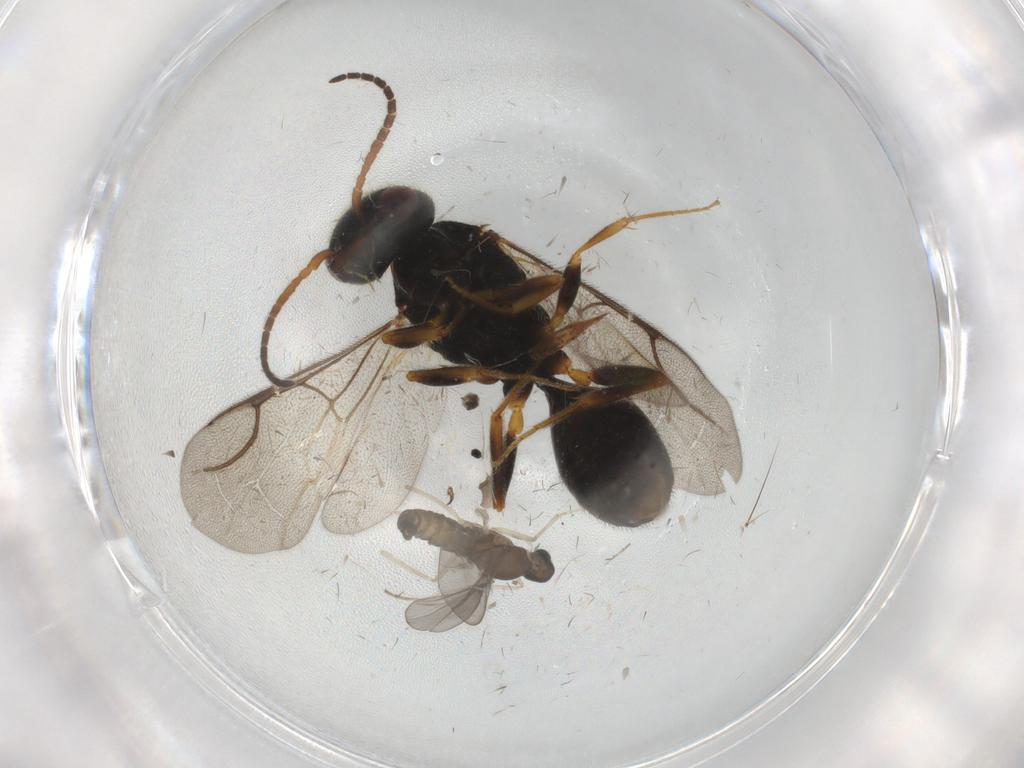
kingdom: Animalia
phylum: Arthropoda
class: Insecta
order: Hymenoptera
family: Bethylidae
